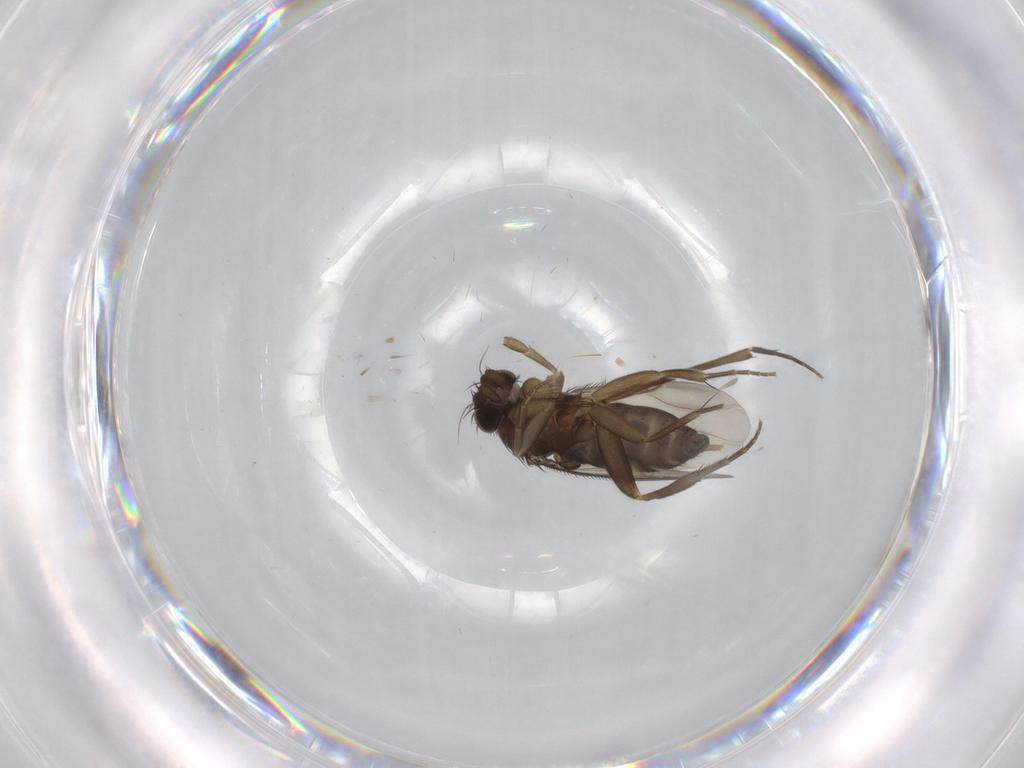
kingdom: Animalia
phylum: Arthropoda
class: Insecta
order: Diptera
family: Phoridae
